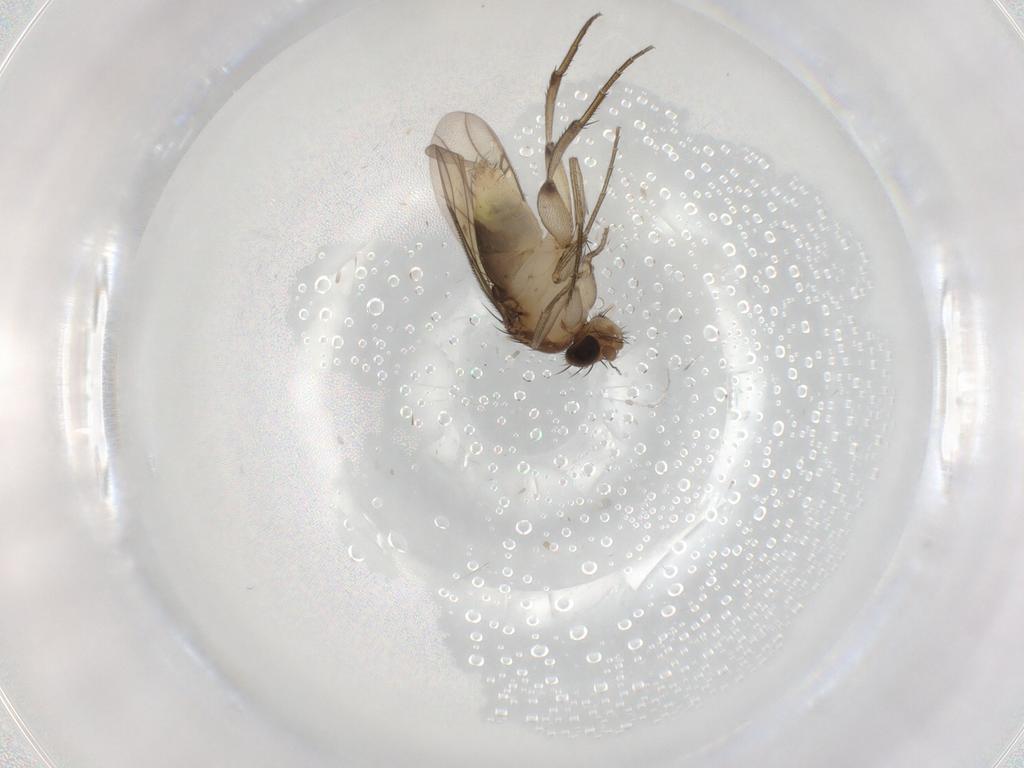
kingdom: Animalia
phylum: Arthropoda
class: Insecta
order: Diptera
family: Phoridae
